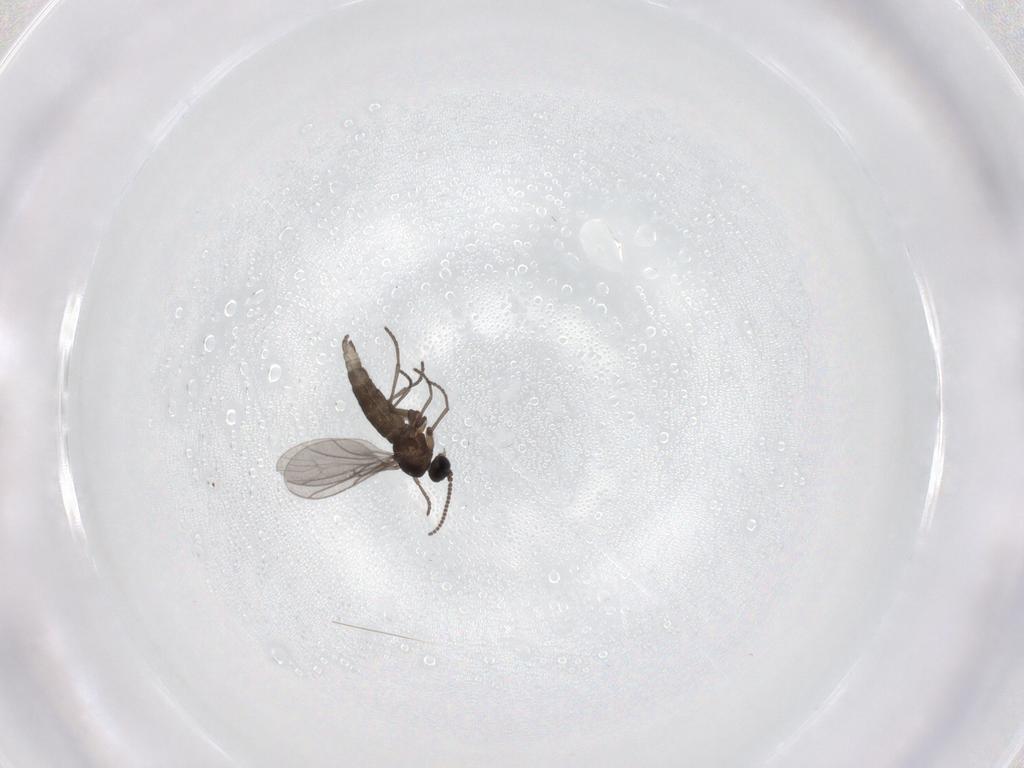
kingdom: Animalia
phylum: Arthropoda
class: Insecta
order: Diptera
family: Sciaridae
